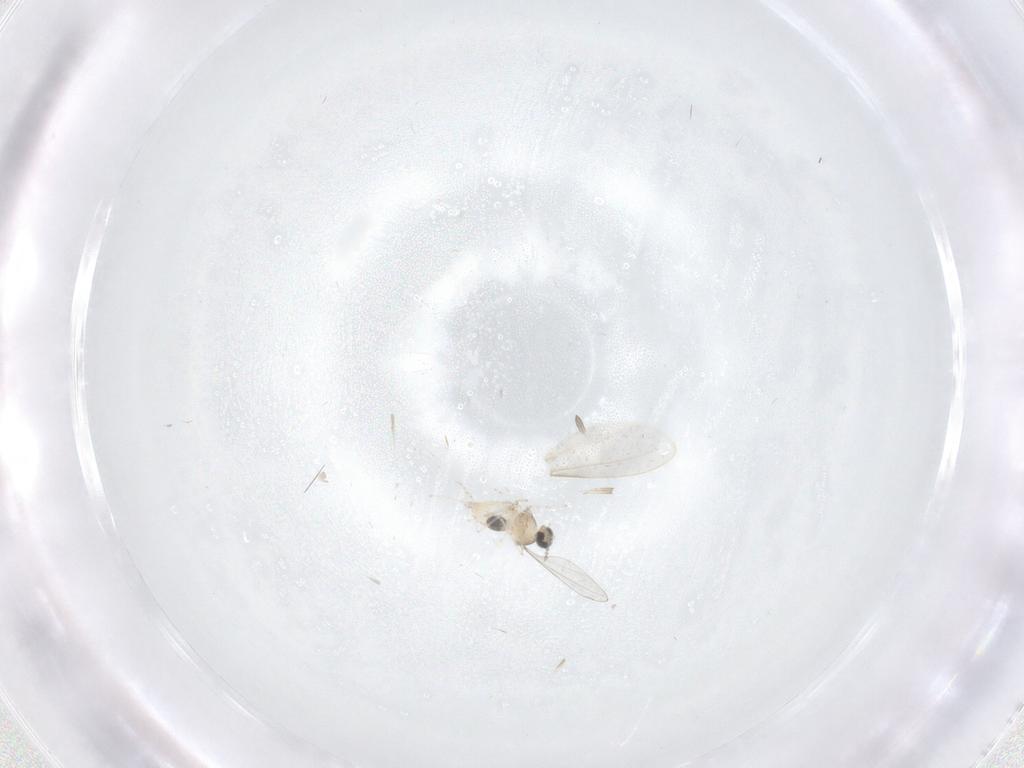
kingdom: Animalia
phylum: Arthropoda
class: Insecta
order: Diptera
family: Cecidomyiidae
